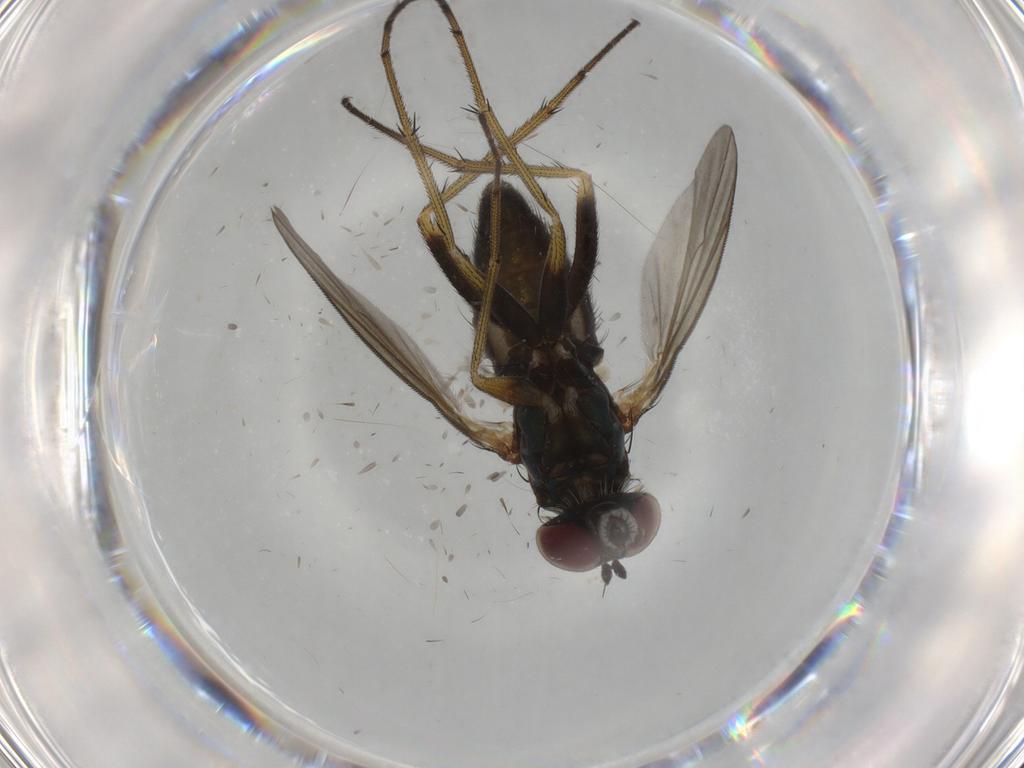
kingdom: Animalia
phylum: Arthropoda
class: Insecta
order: Diptera
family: Dolichopodidae
